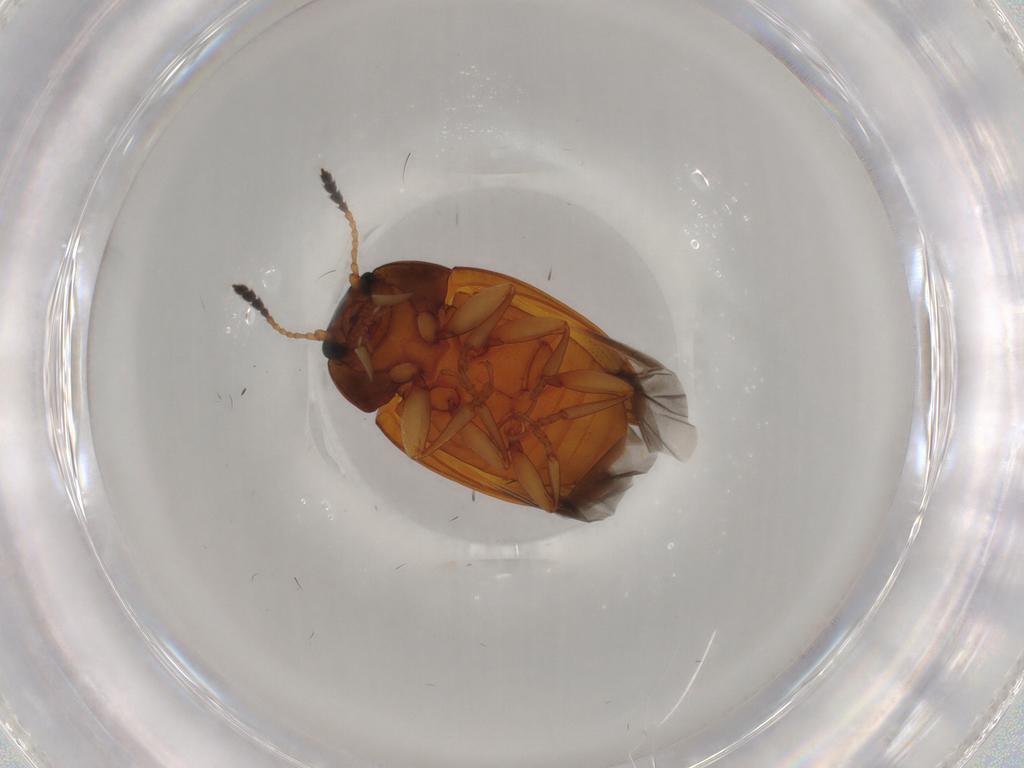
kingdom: Animalia
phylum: Arthropoda
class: Insecta
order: Coleoptera
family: Erotylidae
